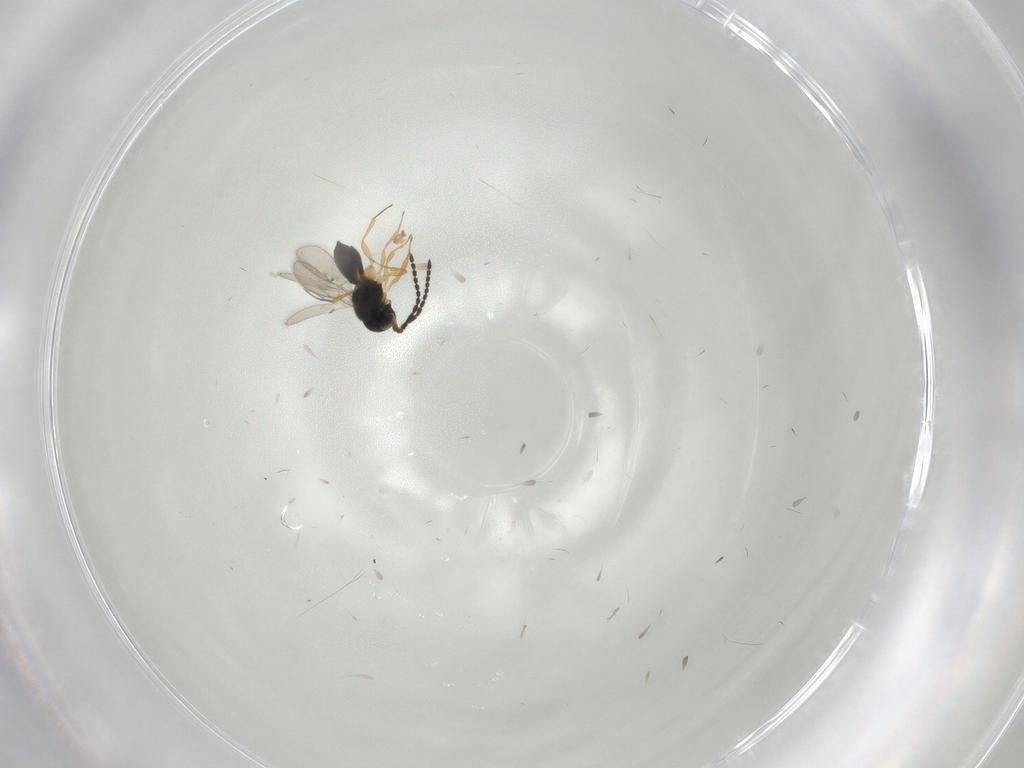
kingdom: Animalia
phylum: Arthropoda
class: Insecta
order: Hymenoptera
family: Scelionidae
